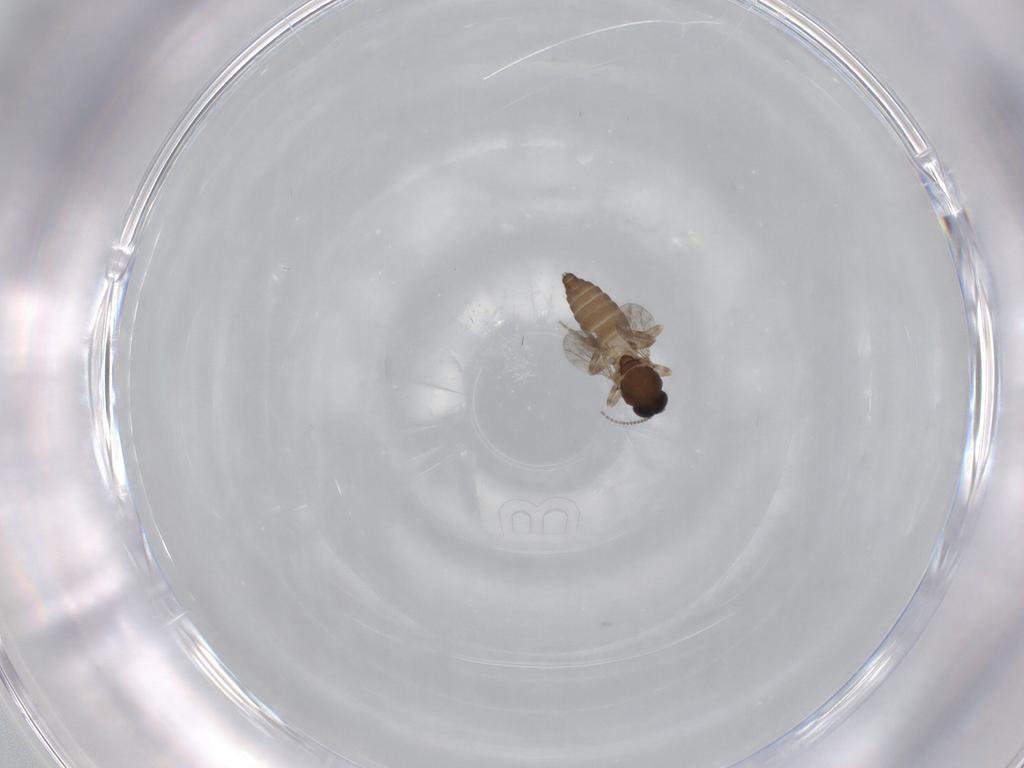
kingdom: Animalia
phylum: Arthropoda
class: Insecta
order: Diptera
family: Ceratopogonidae
